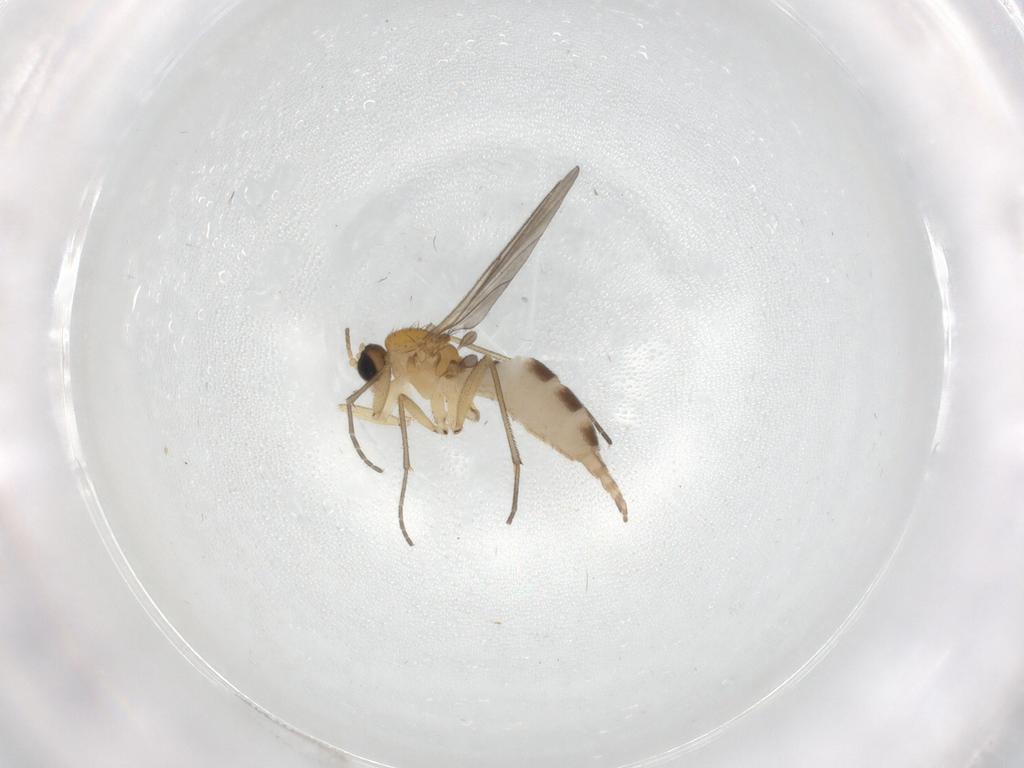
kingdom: Animalia
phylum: Arthropoda
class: Insecta
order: Diptera
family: Sciaridae
